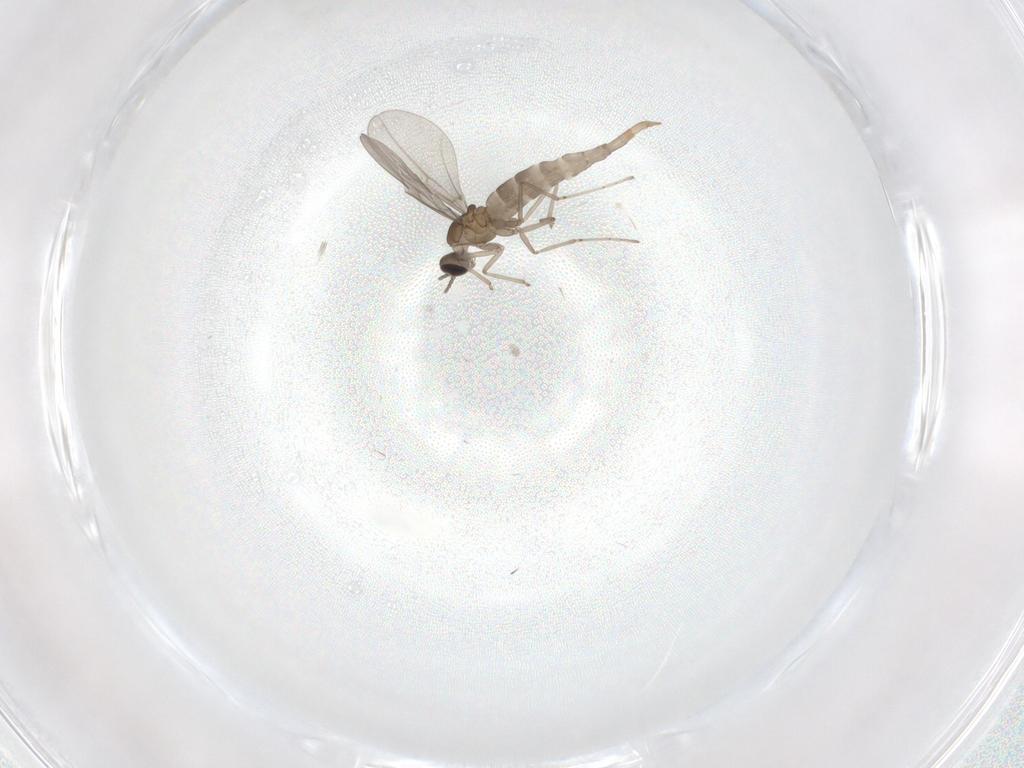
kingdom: Animalia
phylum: Arthropoda
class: Insecta
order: Diptera
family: Cecidomyiidae
